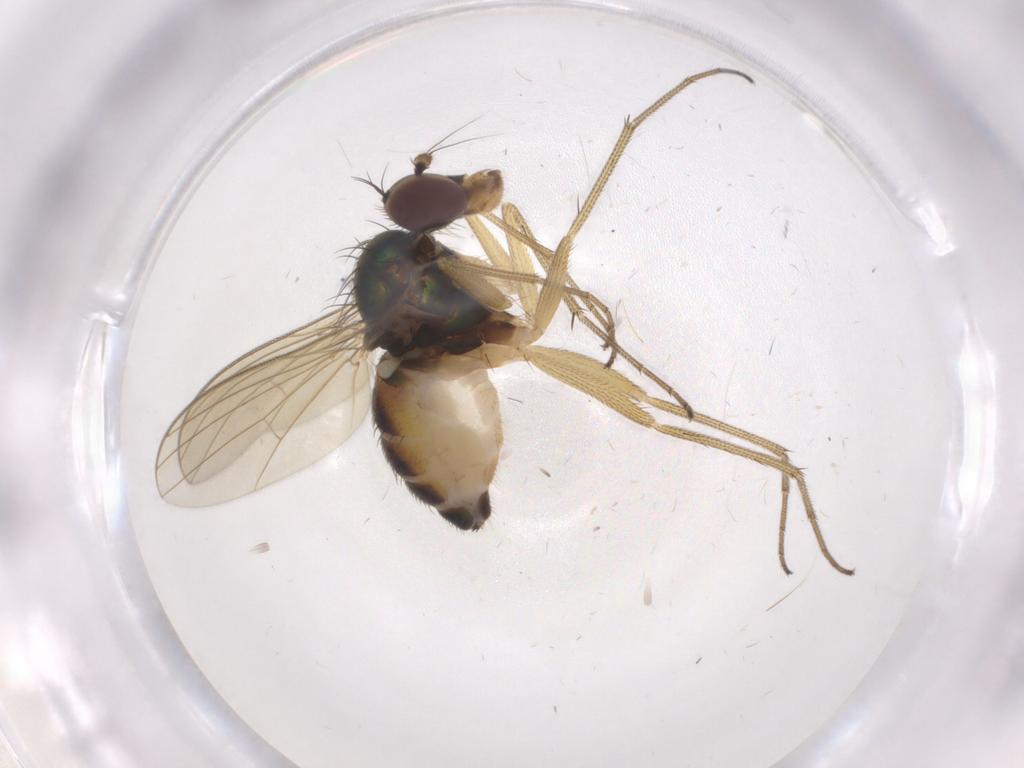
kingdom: Animalia
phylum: Arthropoda
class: Insecta
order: Diptera
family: Dolichopodidae
